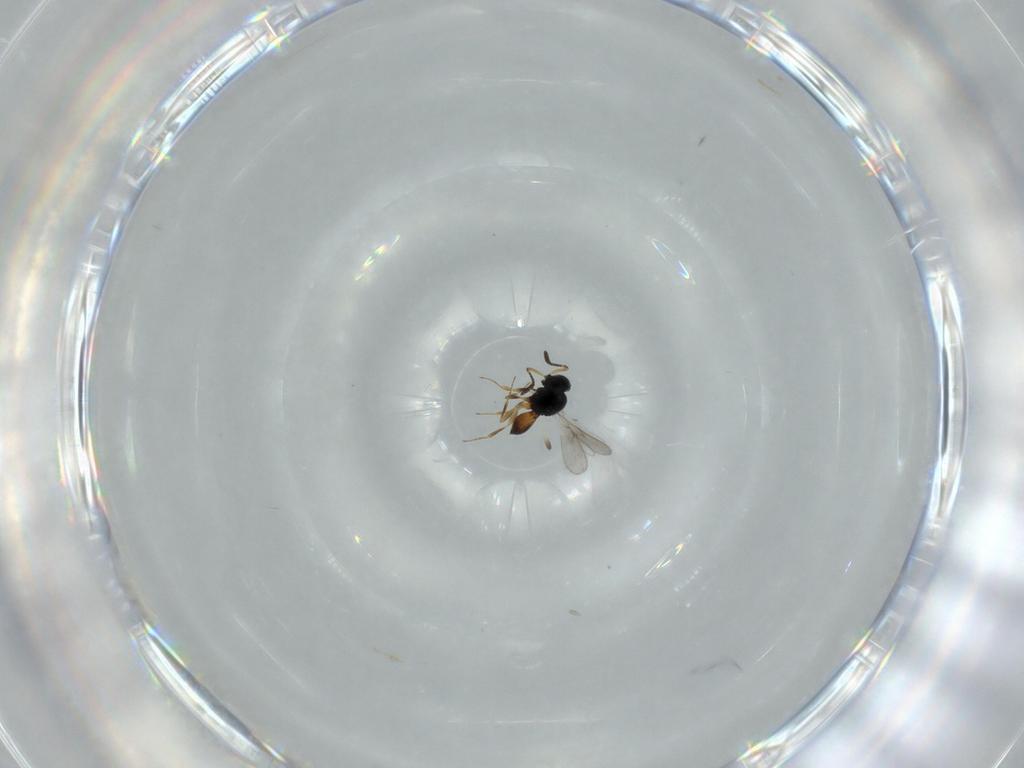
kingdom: Animalia
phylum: Arthropoda
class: Insecta
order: Hymenoptera
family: Scelionidae
